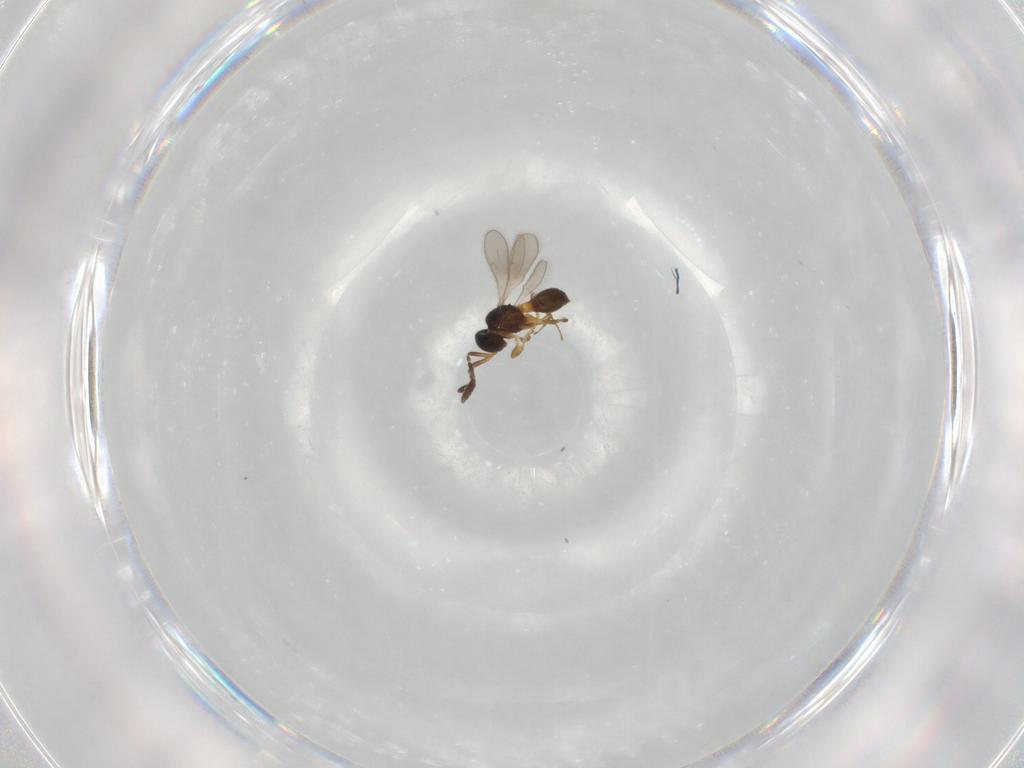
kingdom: Animalia
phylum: Arthropoda
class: Insecta
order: Hymenoptera
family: Scelionidae
